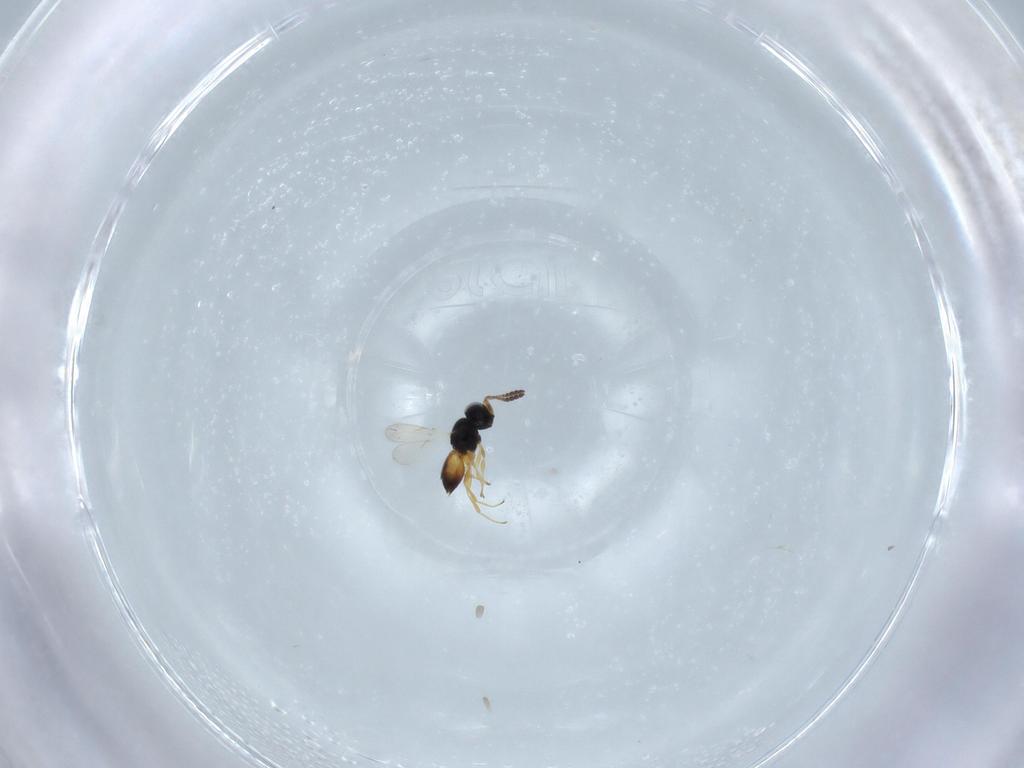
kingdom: Animalia
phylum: Arthropoda
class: Insecta
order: Hymenoptera
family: Scelionidae
